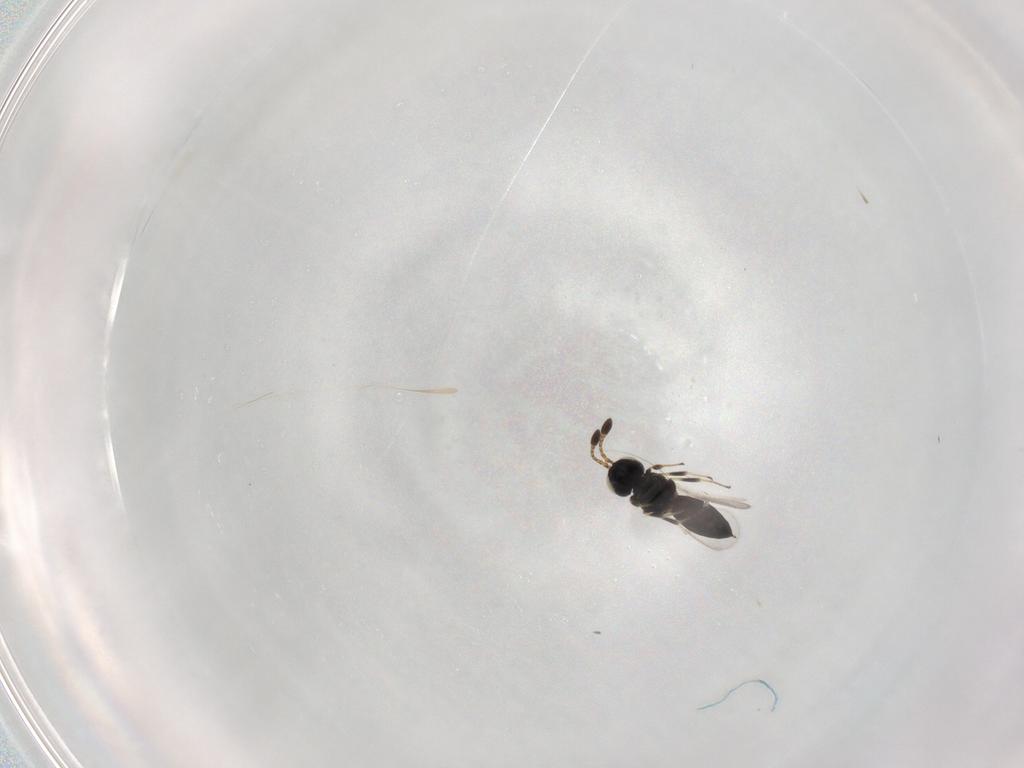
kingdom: Animalia
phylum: Arthropoda
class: Insecta
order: Hymenoptera
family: Scelionidae
